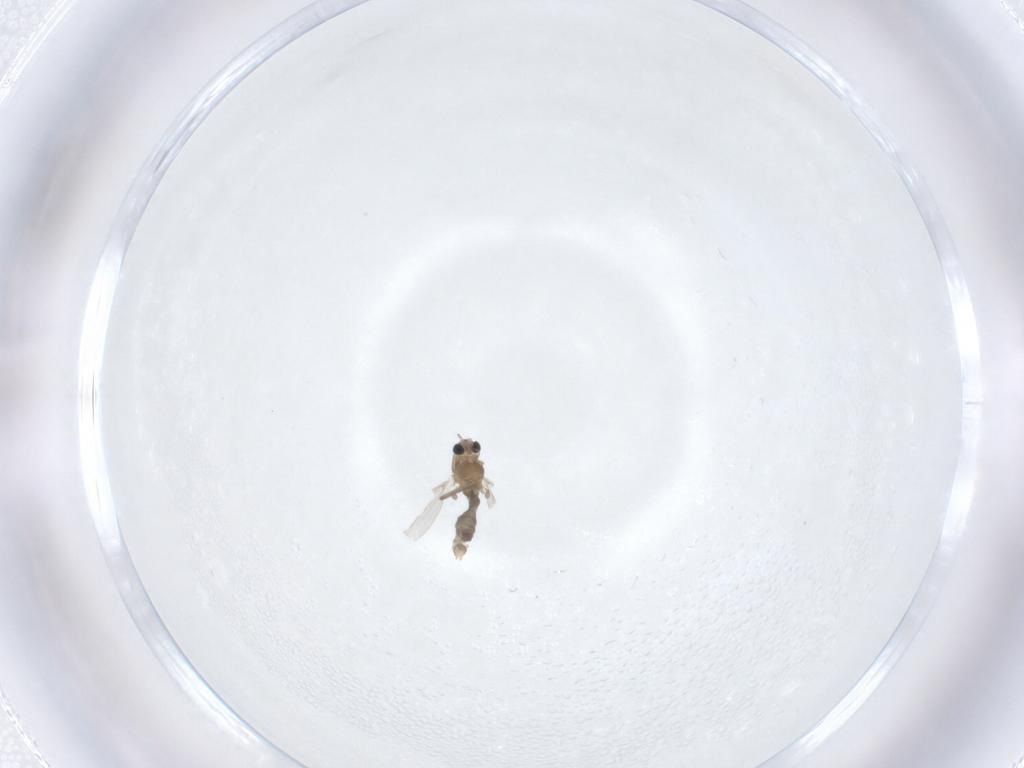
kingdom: Animalia
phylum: Arthropoda
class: Insecta
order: Diptera
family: Chironomidae
